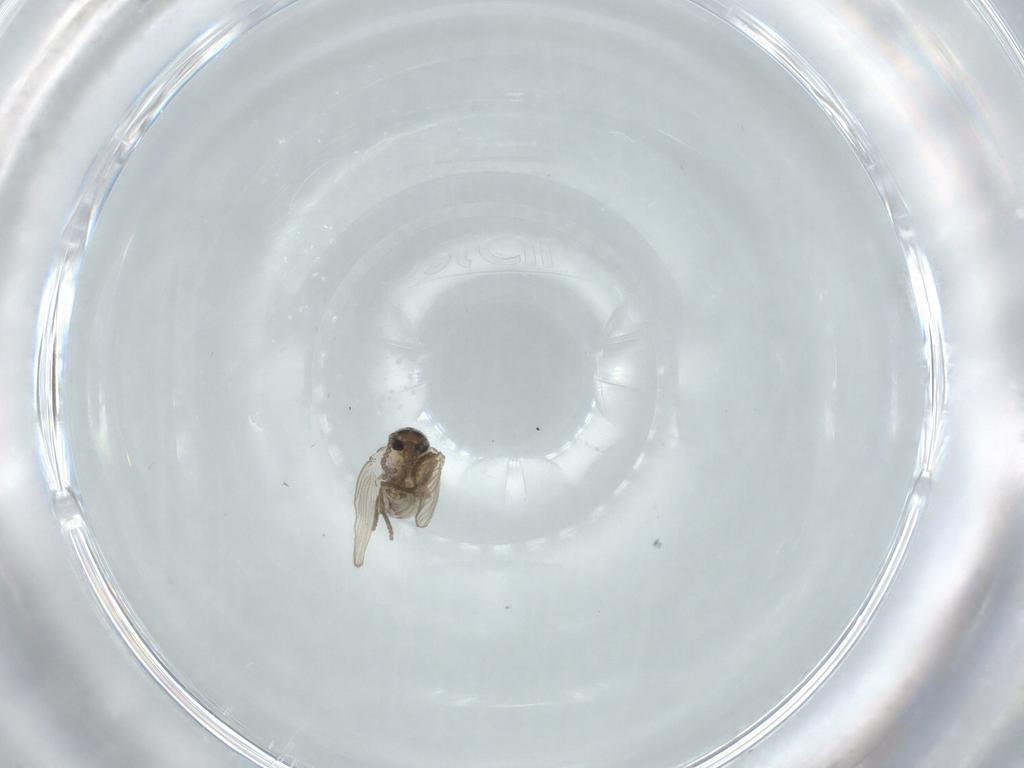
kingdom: Animalia
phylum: Arthropoda
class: Insecta
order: Diptera
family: Psychodidae
